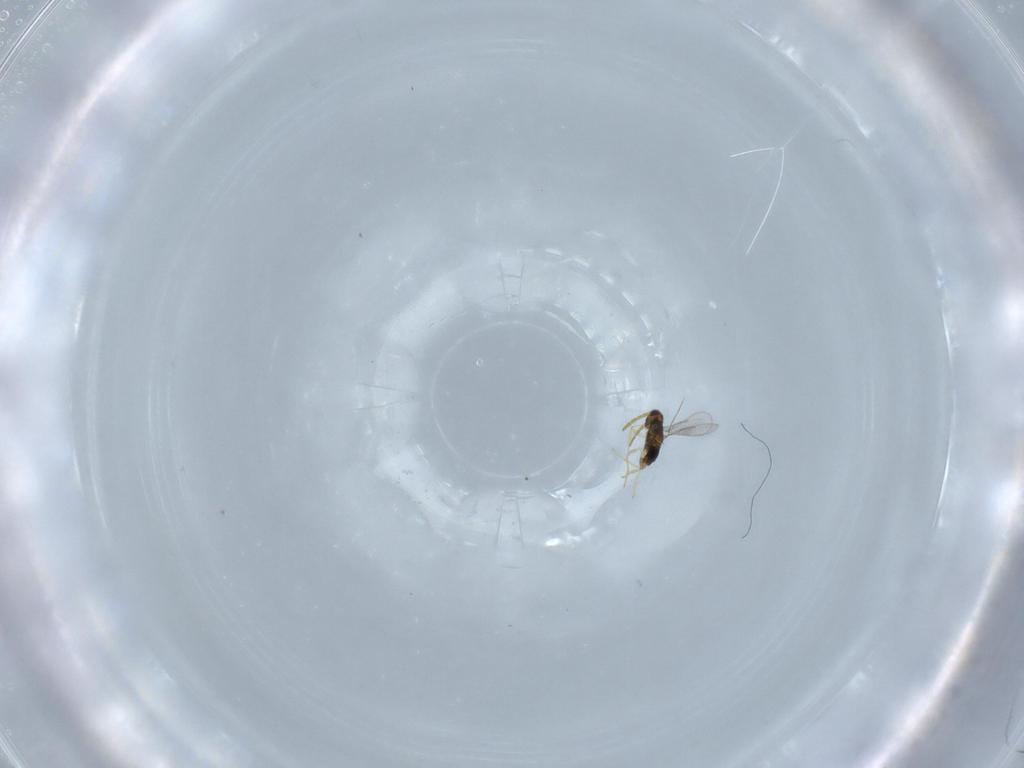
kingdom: Animalia
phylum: Arthropoda
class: Insecta
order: Hymenoptera
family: Aphelinidae
